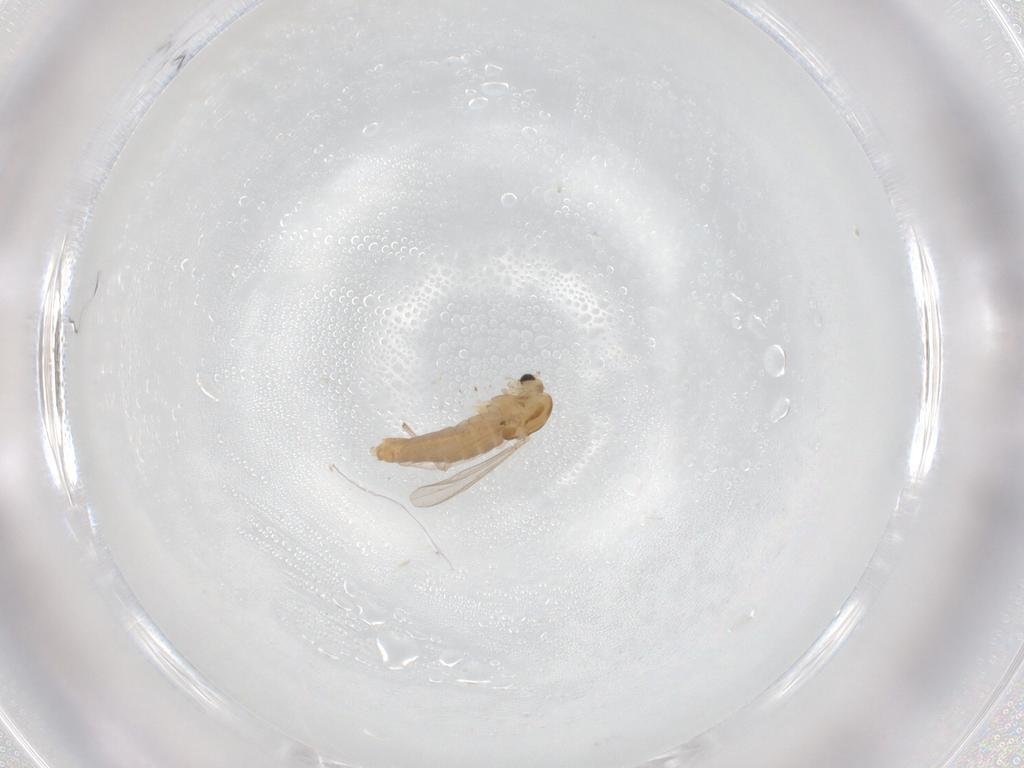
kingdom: Animalia
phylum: Arthropoda
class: Insecta
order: Diptera
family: Chironomidae
